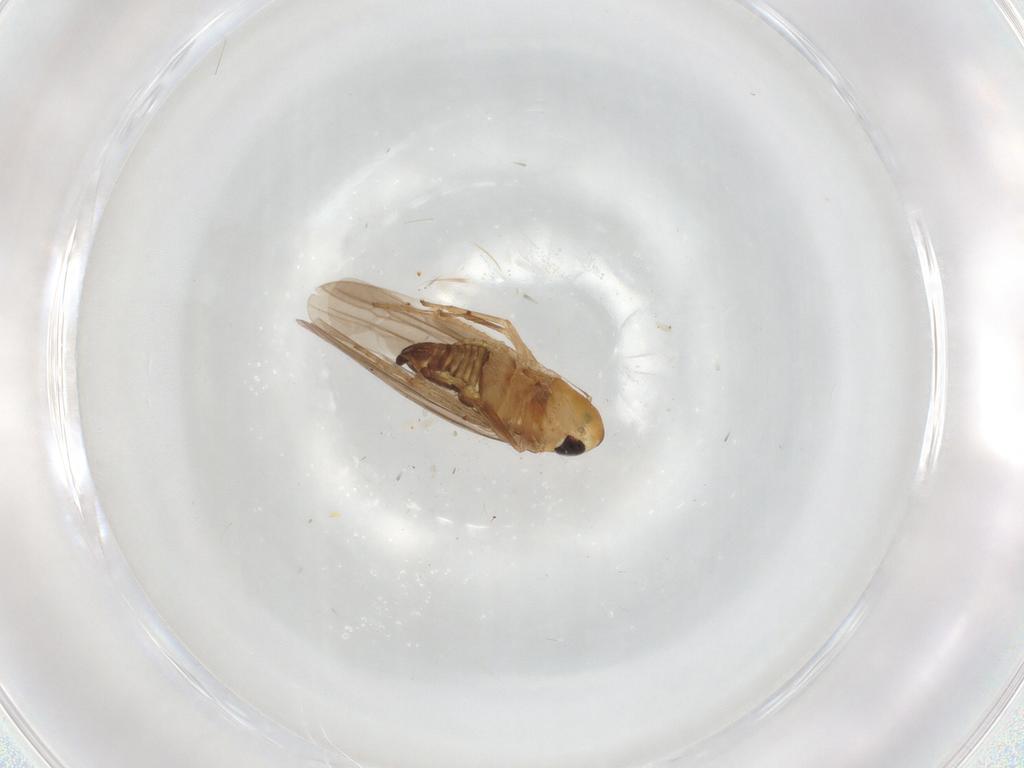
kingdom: Animalia
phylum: Arthropoda
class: Insecta
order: Hemiptera
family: Cicadellidae
